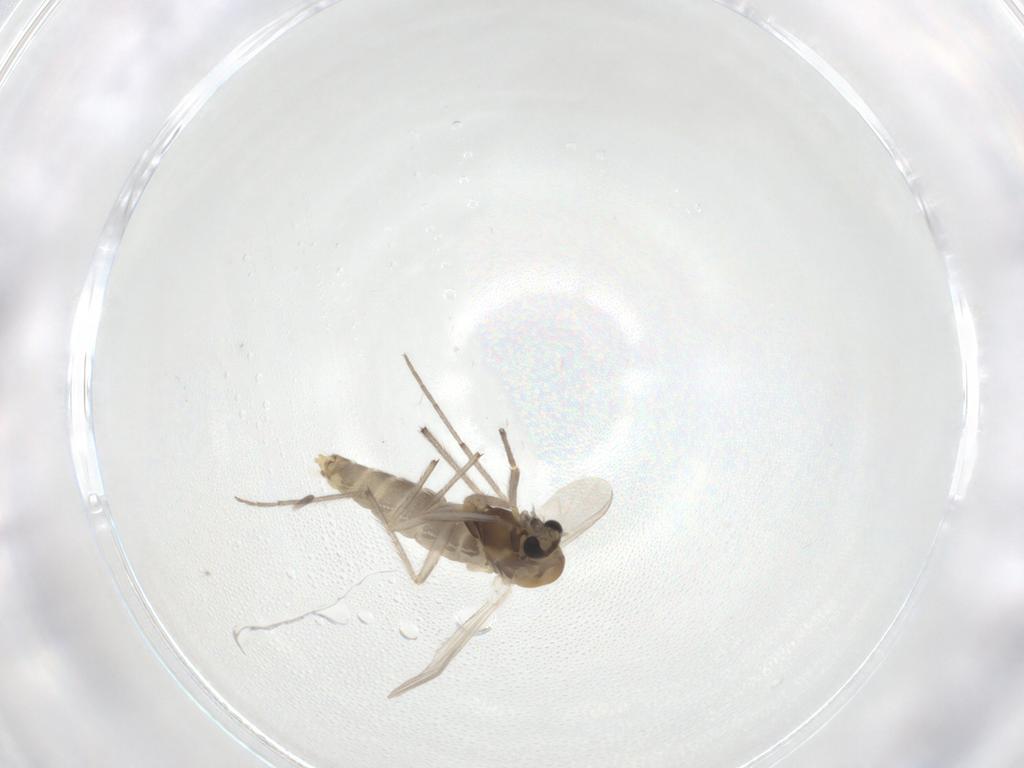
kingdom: Animalia
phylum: Arthropoda
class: Insecta
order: Diptera
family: Chironomidae
